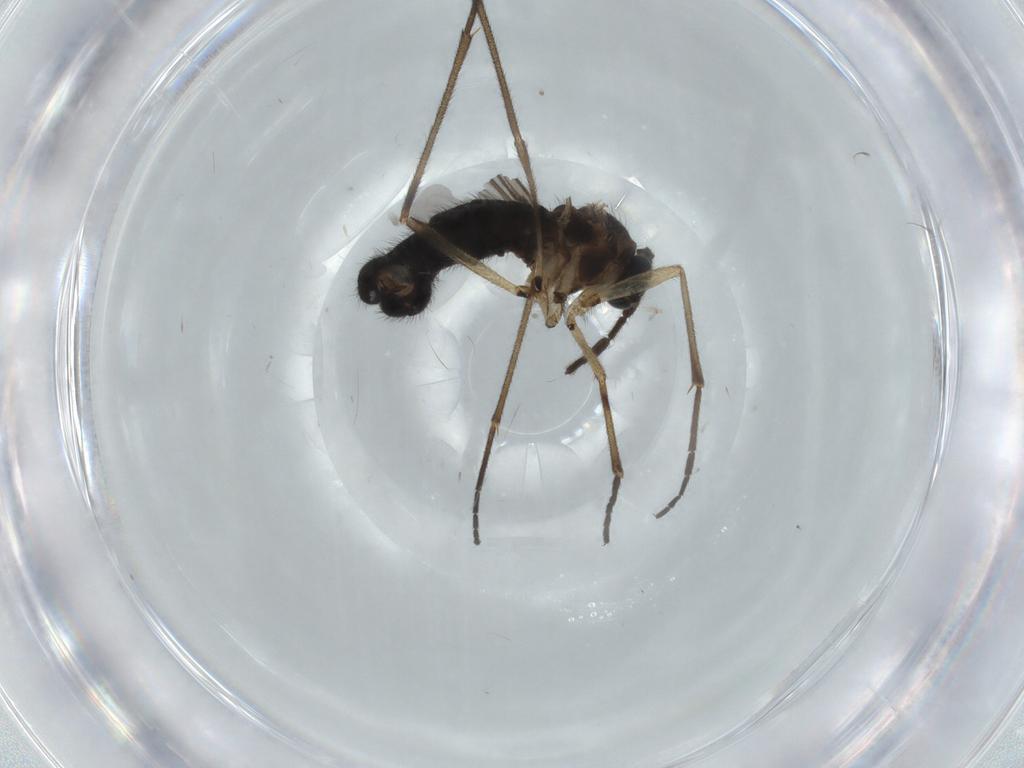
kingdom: Animalia
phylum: Arthropoda
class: Insecta
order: Diptera
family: Sciaridae
